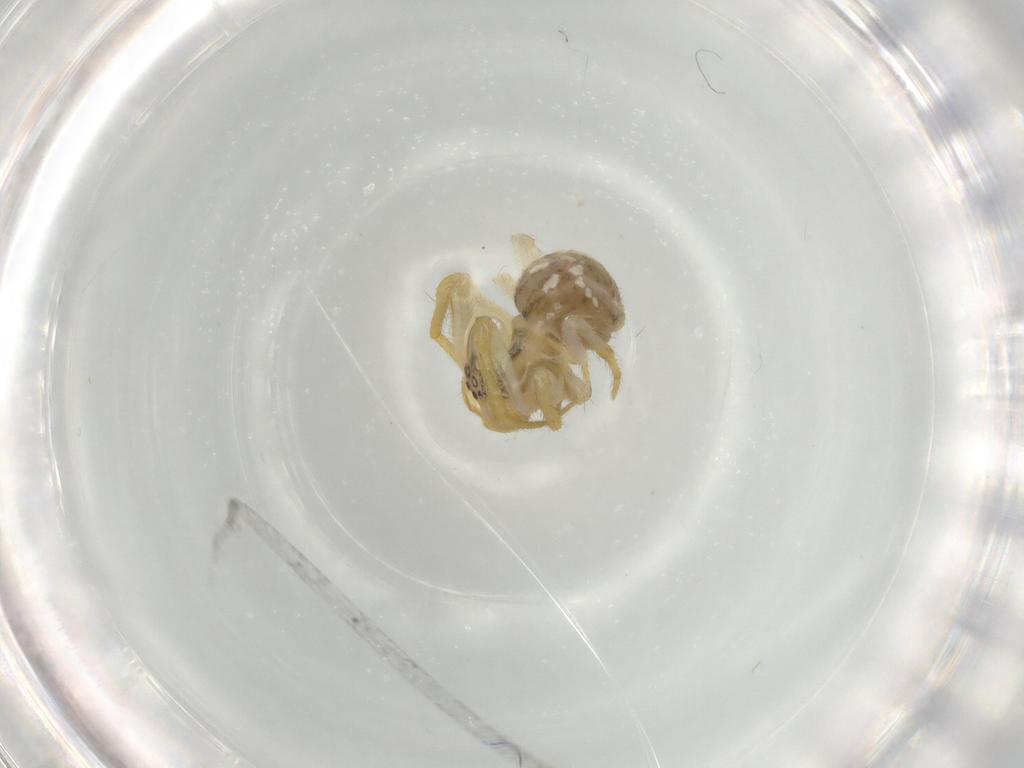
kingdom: Animalia
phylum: Arthropoda
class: Arachnida
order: Araneae
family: Theridiidae
